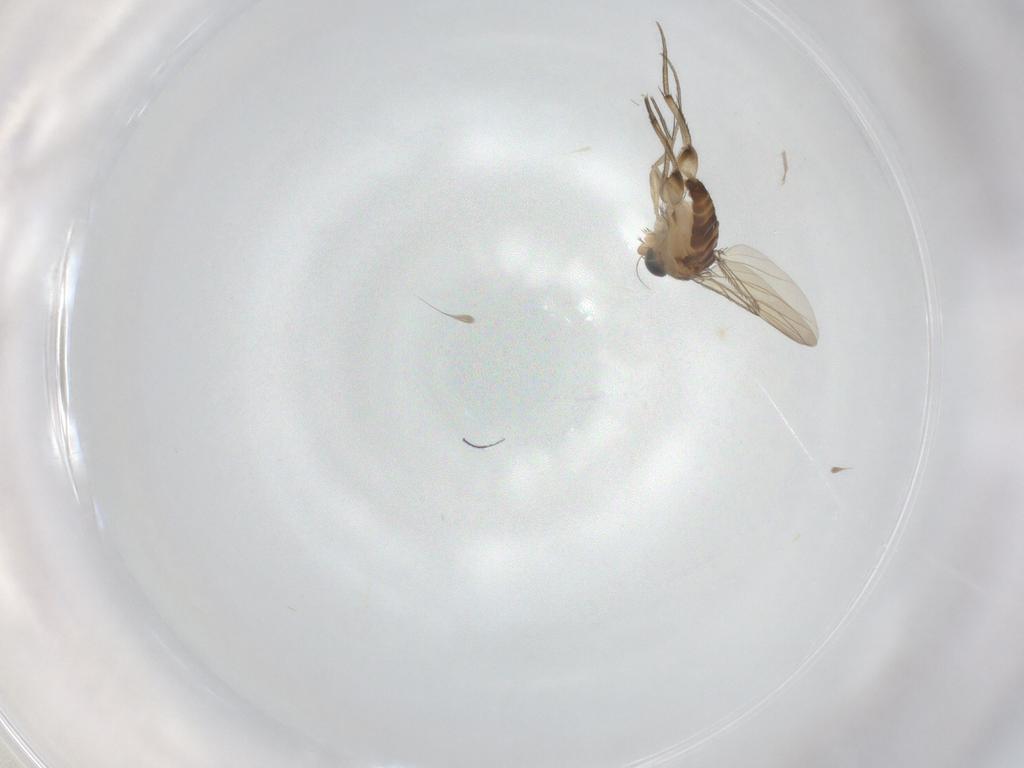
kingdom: Animalia
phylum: Arthropoda
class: Insecta
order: Diptera
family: Phoridae
